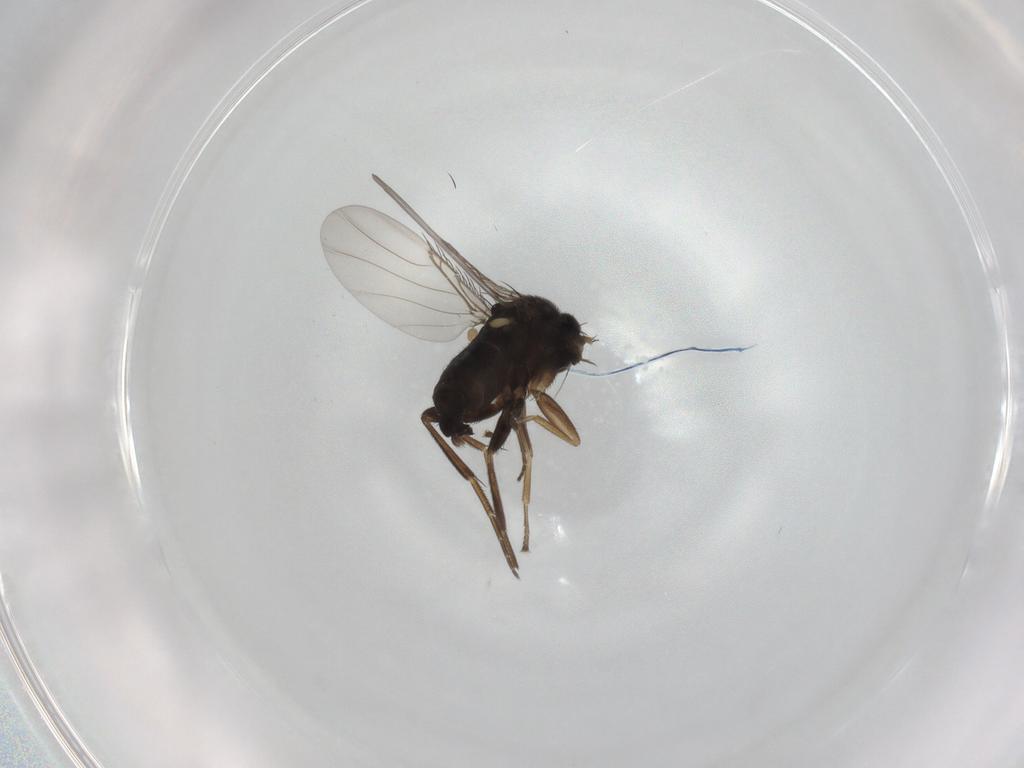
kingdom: Animalia
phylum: Arthropoda
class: Insecta
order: Diptera
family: Phoridae
